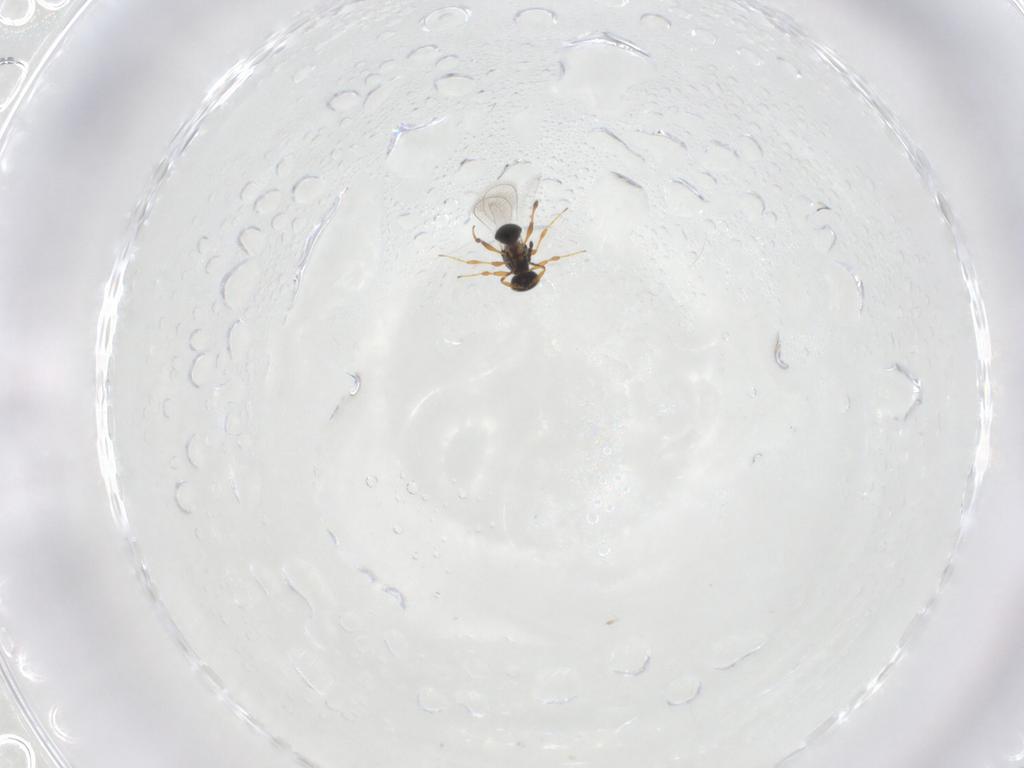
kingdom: Animalia
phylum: Arthropoda
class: Insecta
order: Hymenoptera
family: Platygastridae
